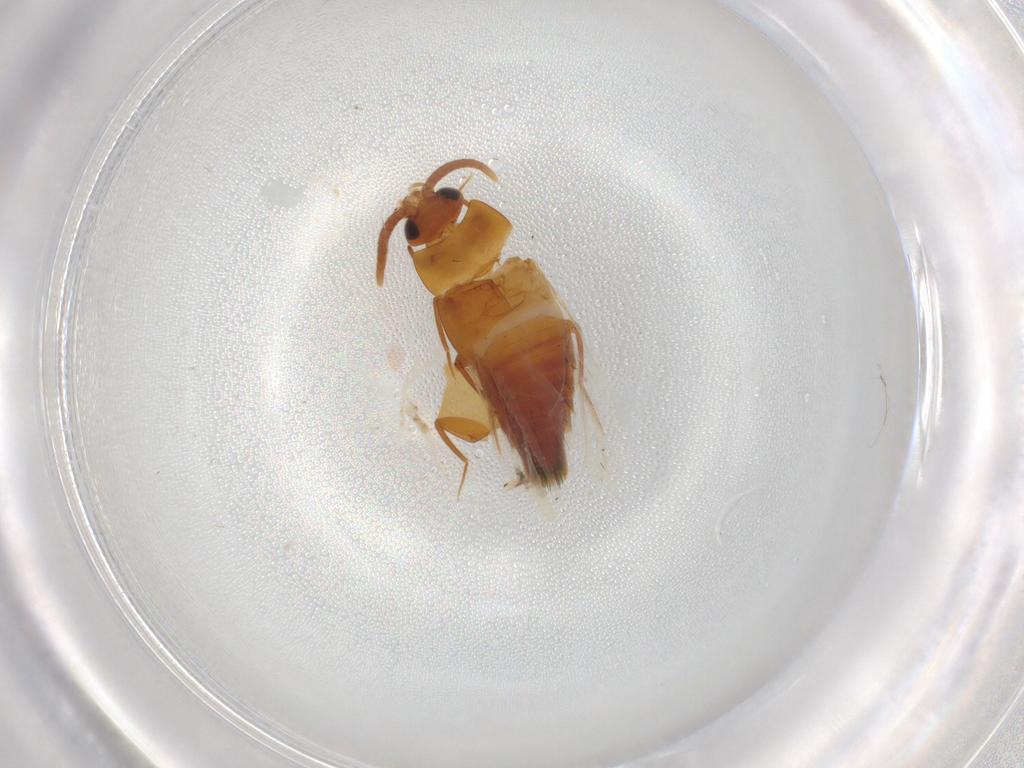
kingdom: Animalia
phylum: Arthropoda
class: Insecta
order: Coleoptera
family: Staphylinidae
